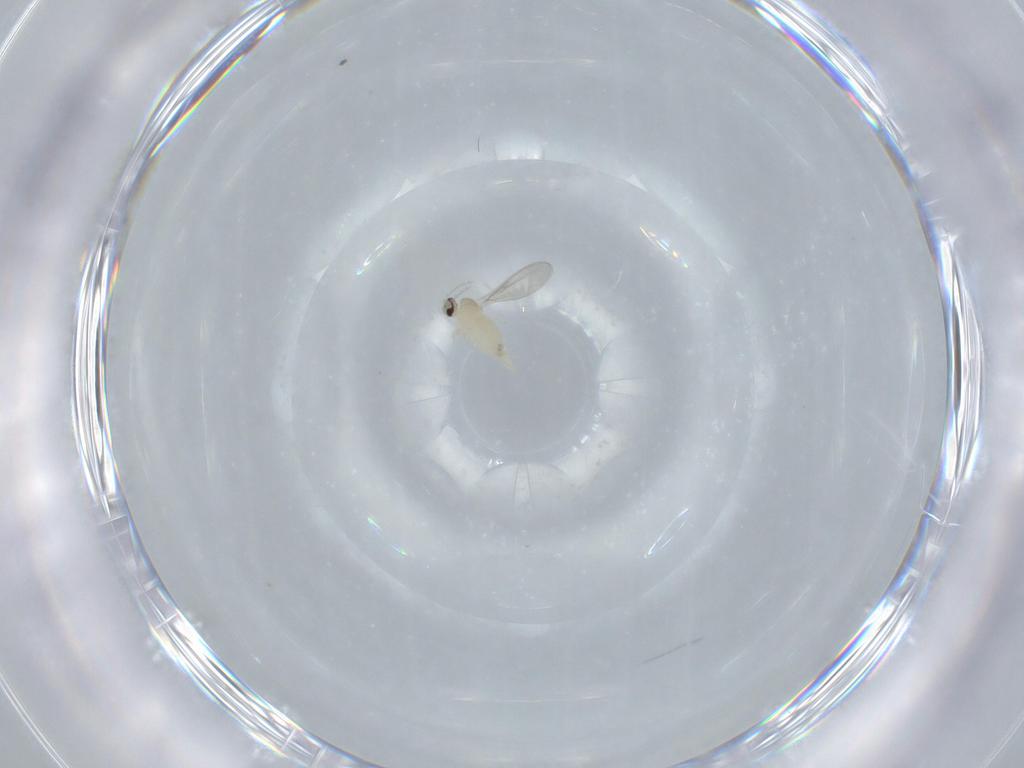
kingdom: Animalia
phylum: Arthropoda
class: Insecta
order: Diptera
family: Cecidomyiidae
